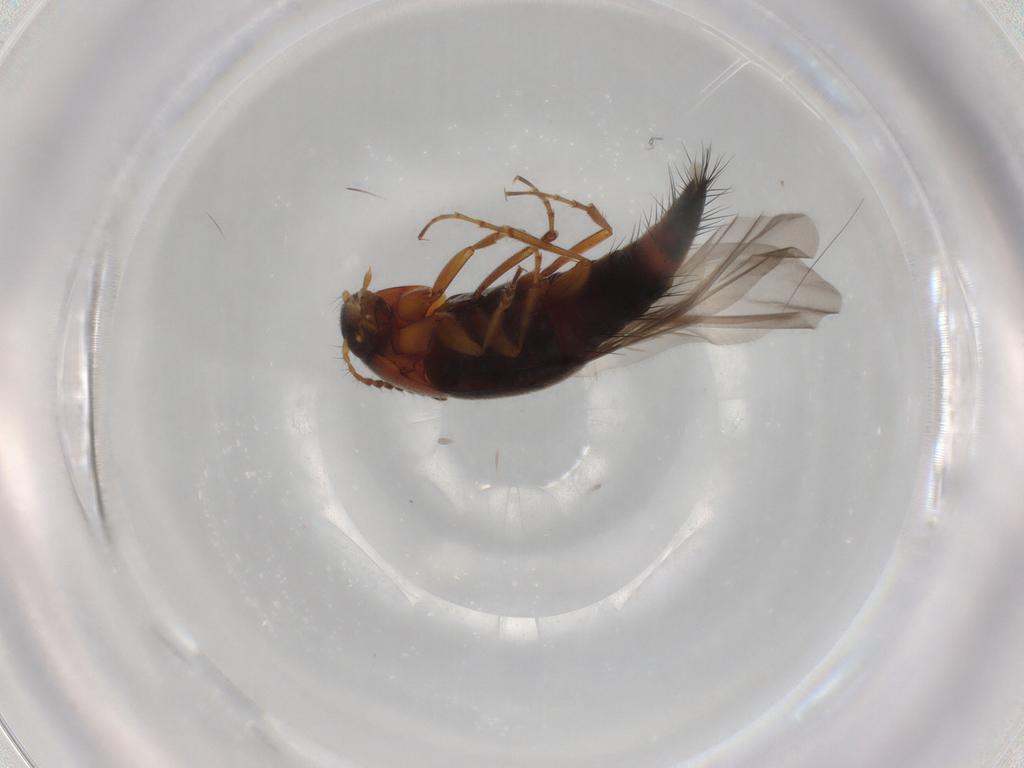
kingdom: Animalia
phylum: Arthropoda
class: Insecta
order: Coleoptera
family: Staphylinidae
